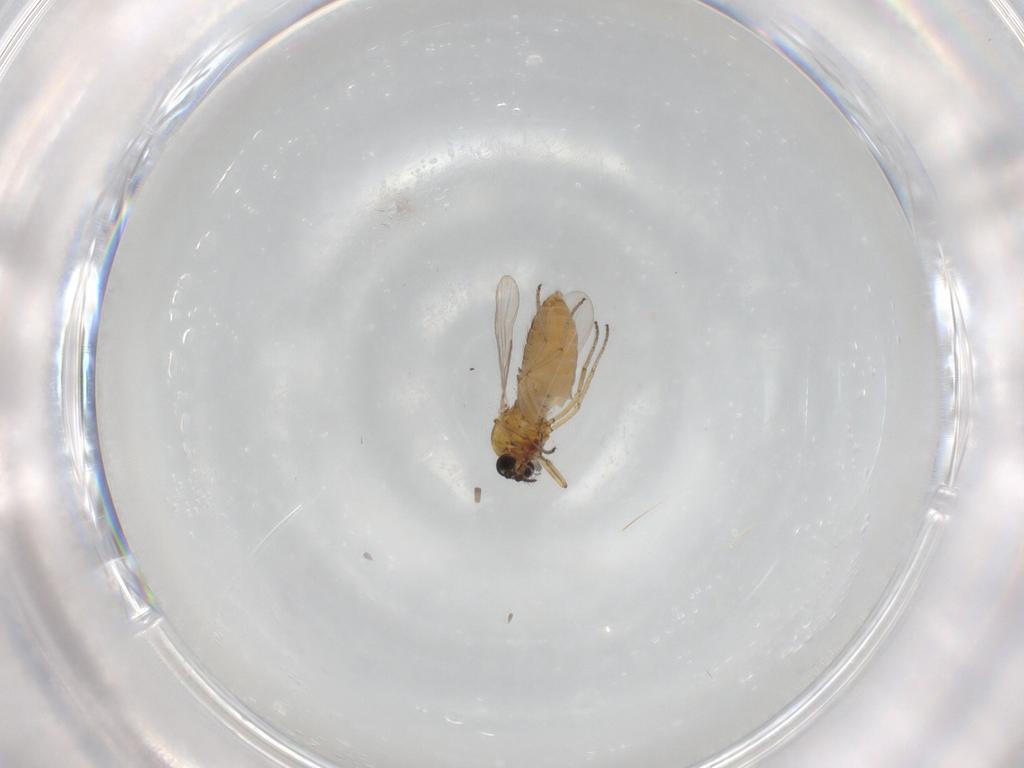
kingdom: Animalia
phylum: Arthropoda
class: Insecta
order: Diptera
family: Ceratopogonidae
